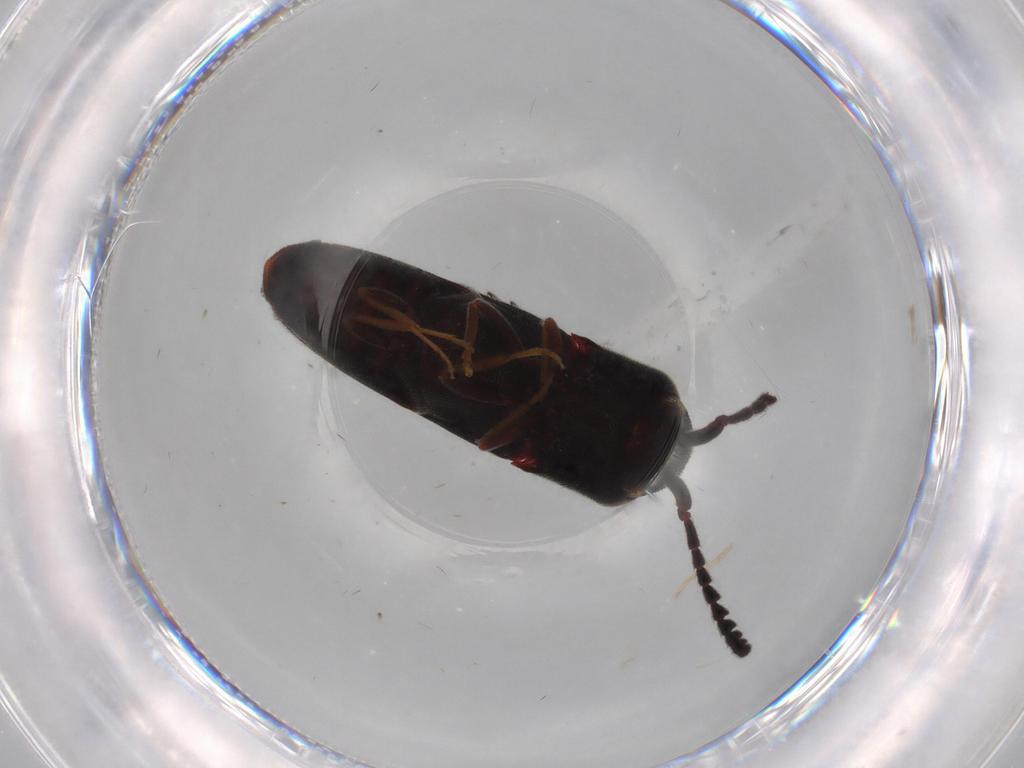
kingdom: Animalia
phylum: Arthropoda
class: Insecta
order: Coleoptera
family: Eucnemidae
